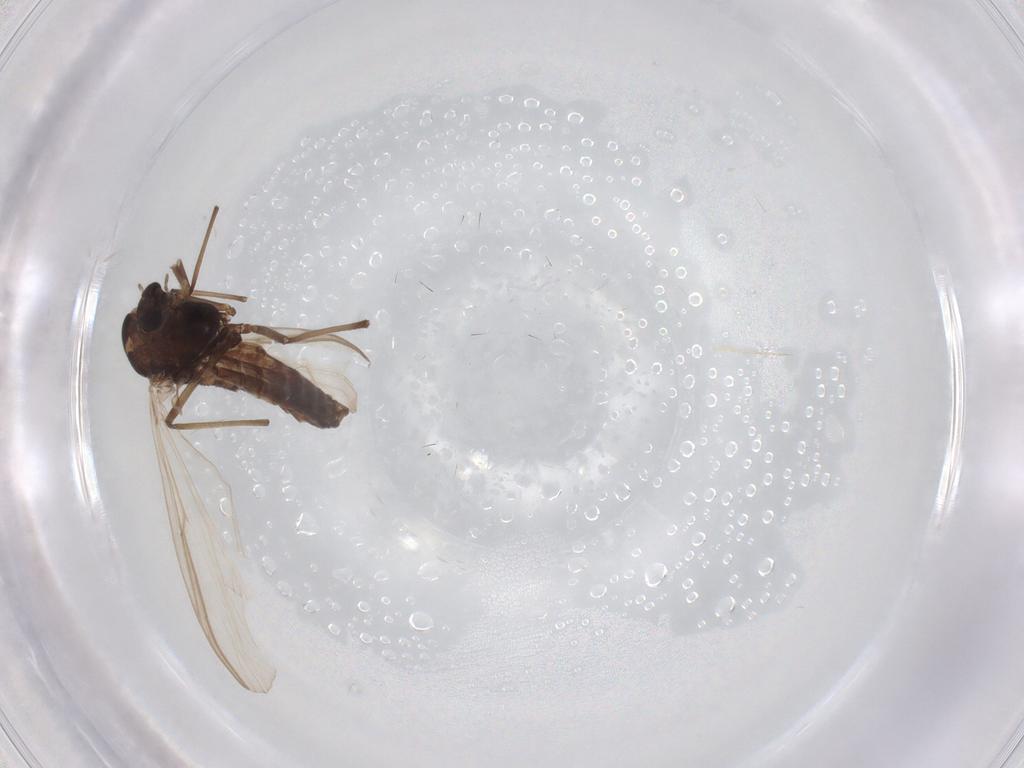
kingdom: Animalia
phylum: Arthropoda
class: Insecta
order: Diptera
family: Chironomidae
